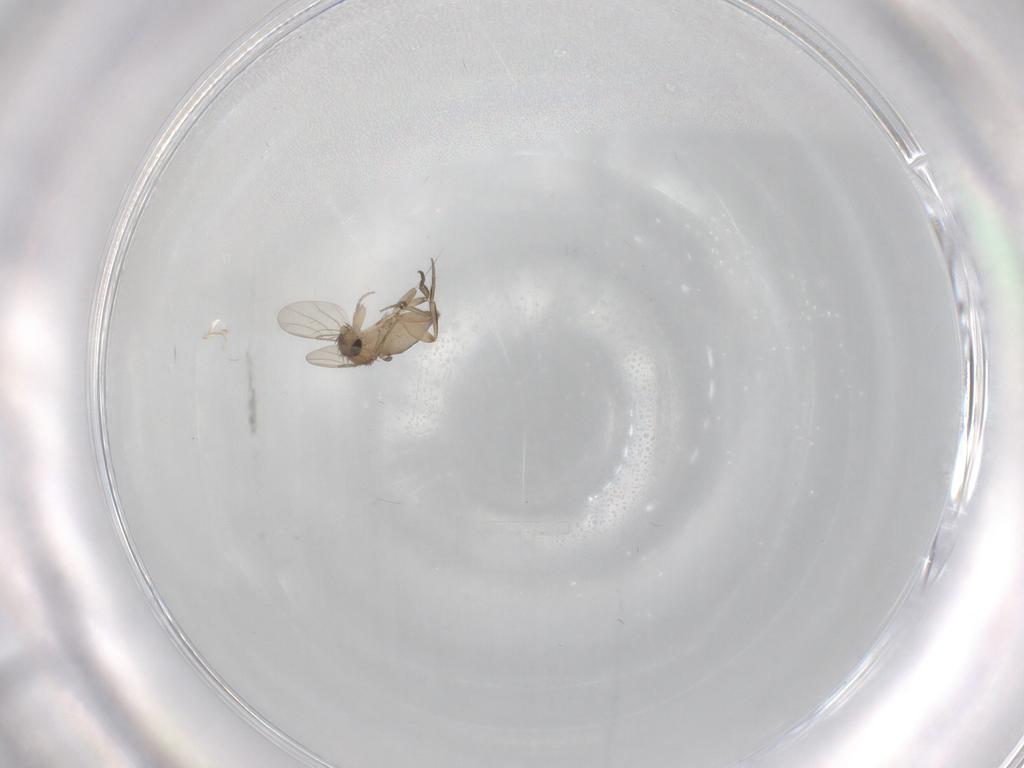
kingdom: Animalia
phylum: Arthropoda
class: Insecta
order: Diptera
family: Phoridae
